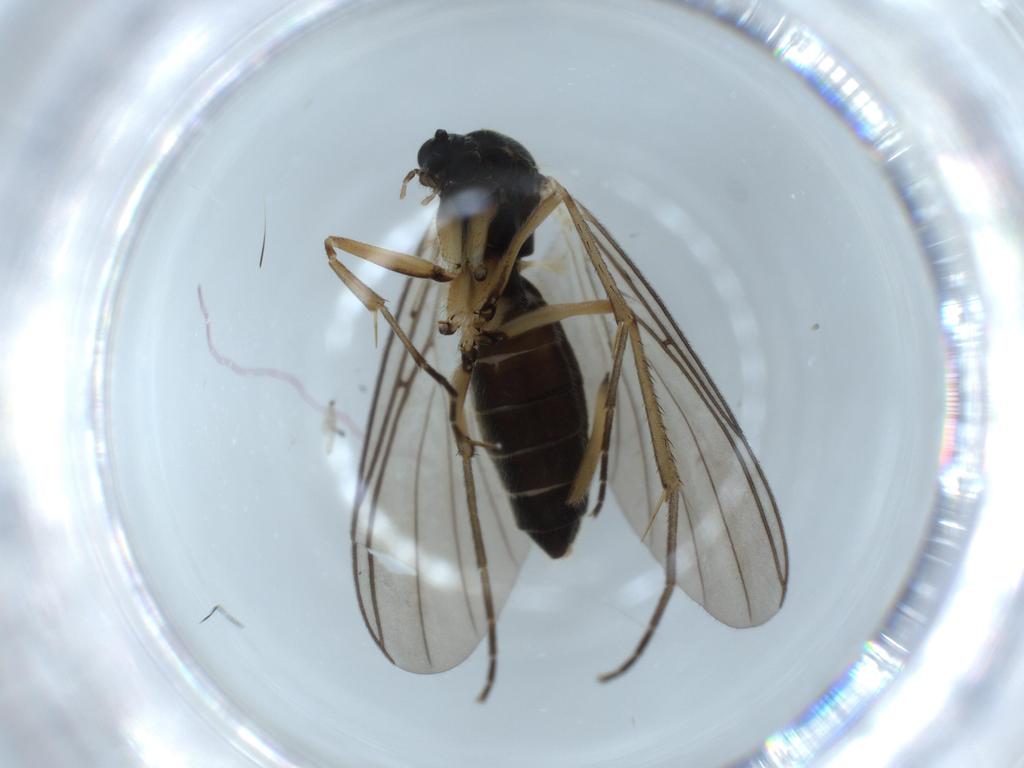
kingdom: Animalia
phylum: Arthropoda
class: Insecta
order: Diptera
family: Mycetophilidae
